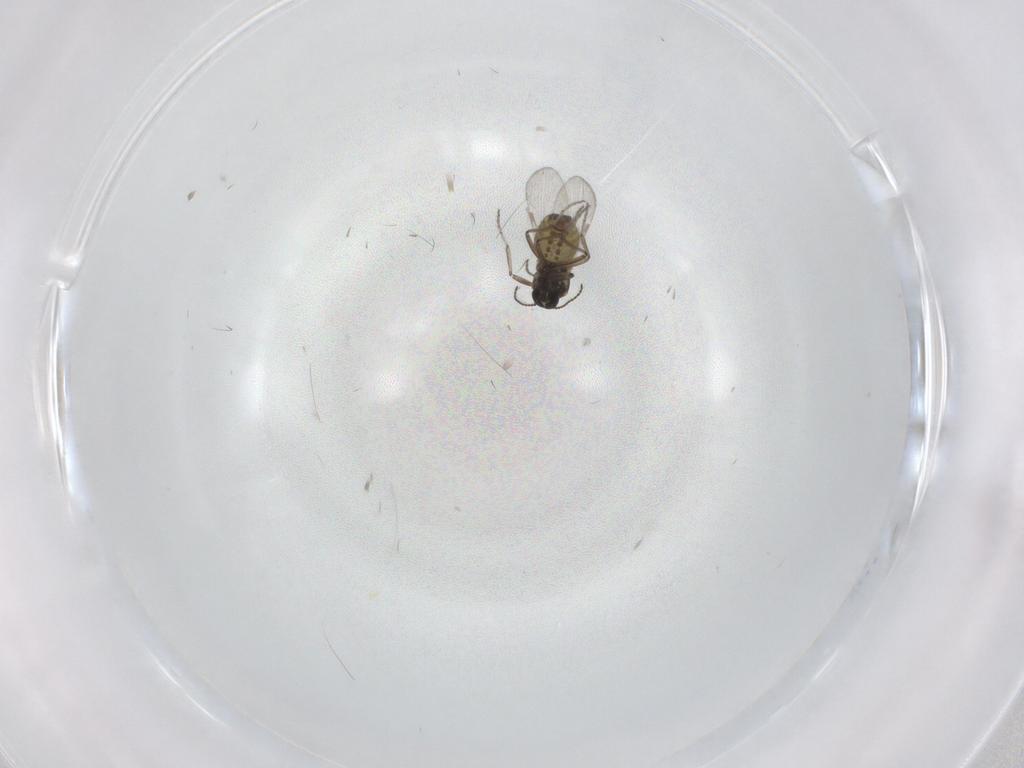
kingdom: Animalia
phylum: Arthropoda
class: Insecta
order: Diptera
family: Ceratopogonidae
